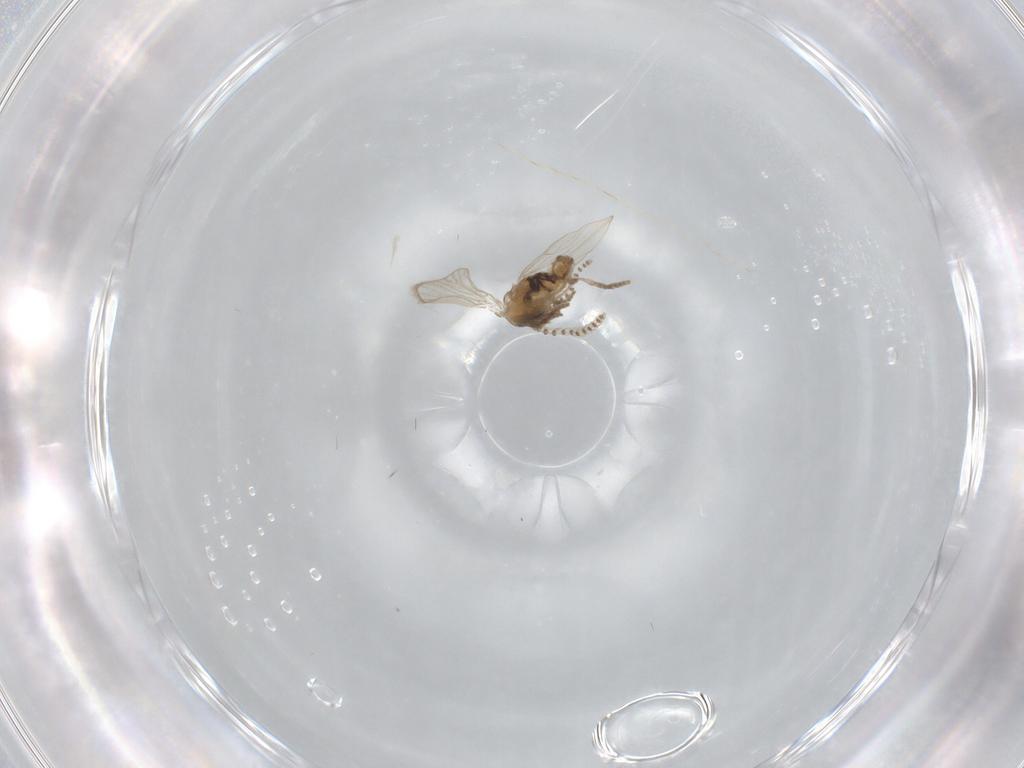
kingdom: Animalia
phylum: Arthropoda
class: Insecta
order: Diptera
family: Psychodidae
